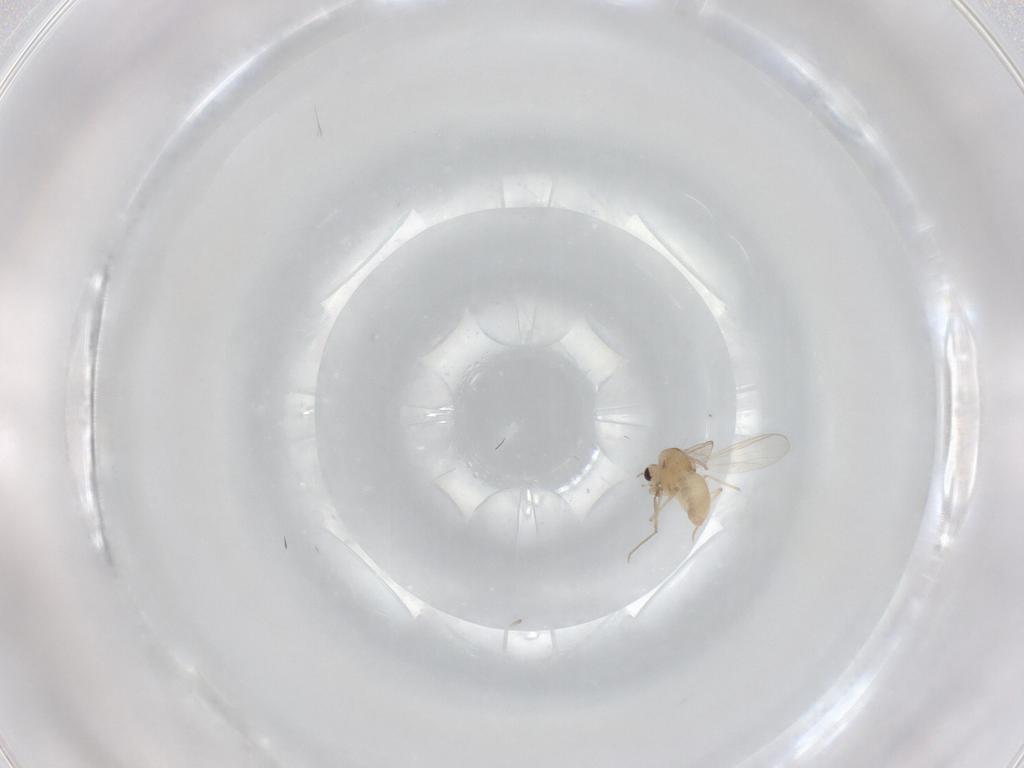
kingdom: Animalia
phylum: Arthropoda
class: Insecta
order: Diptera
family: Chironomidae
